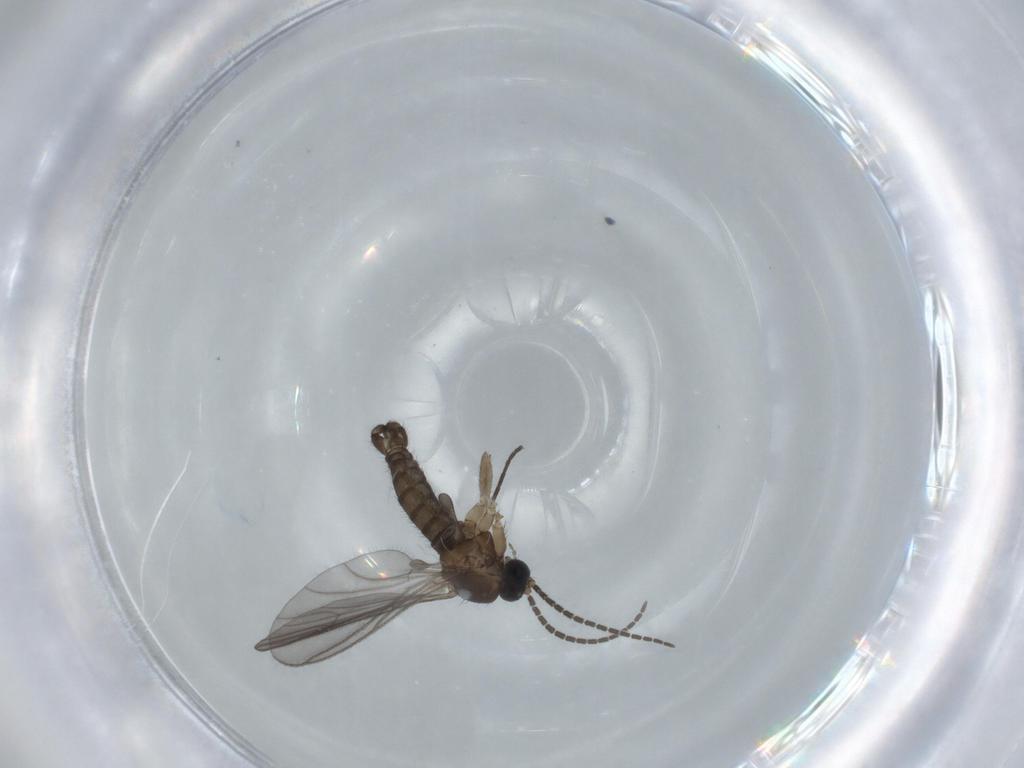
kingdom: Animalia
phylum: Arthropoda
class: Insecta
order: Diptera
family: Sciaridae
